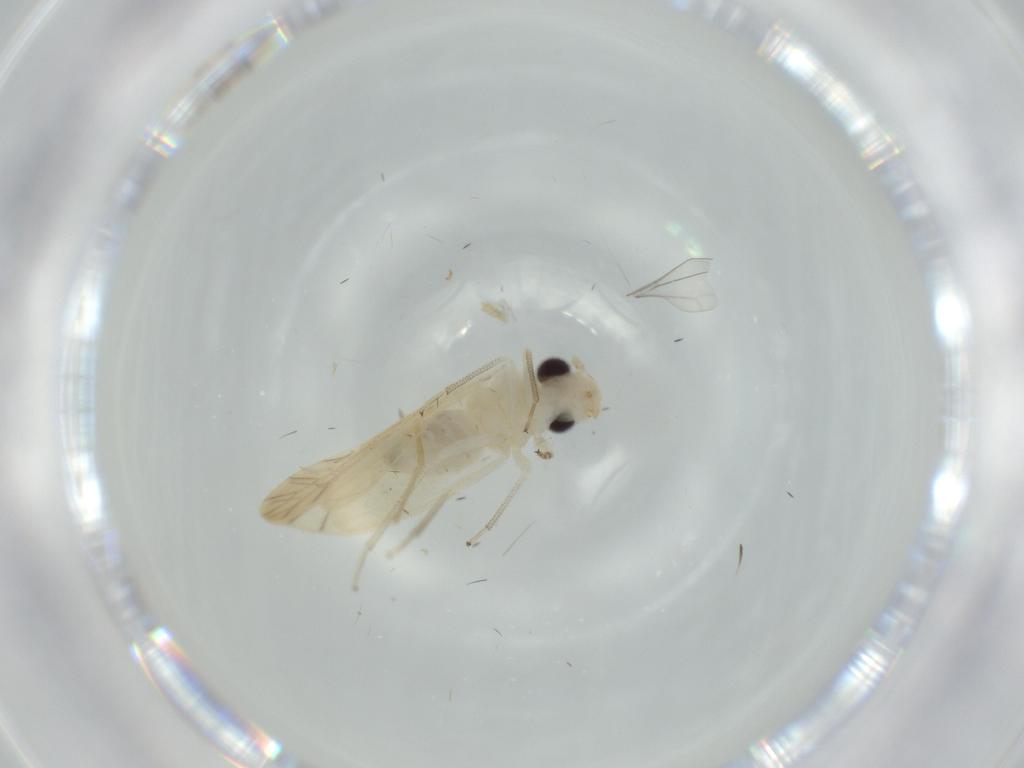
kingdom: Animalia
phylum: Arthropoda
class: Insecta
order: Psocodea
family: Caeciliusidae
